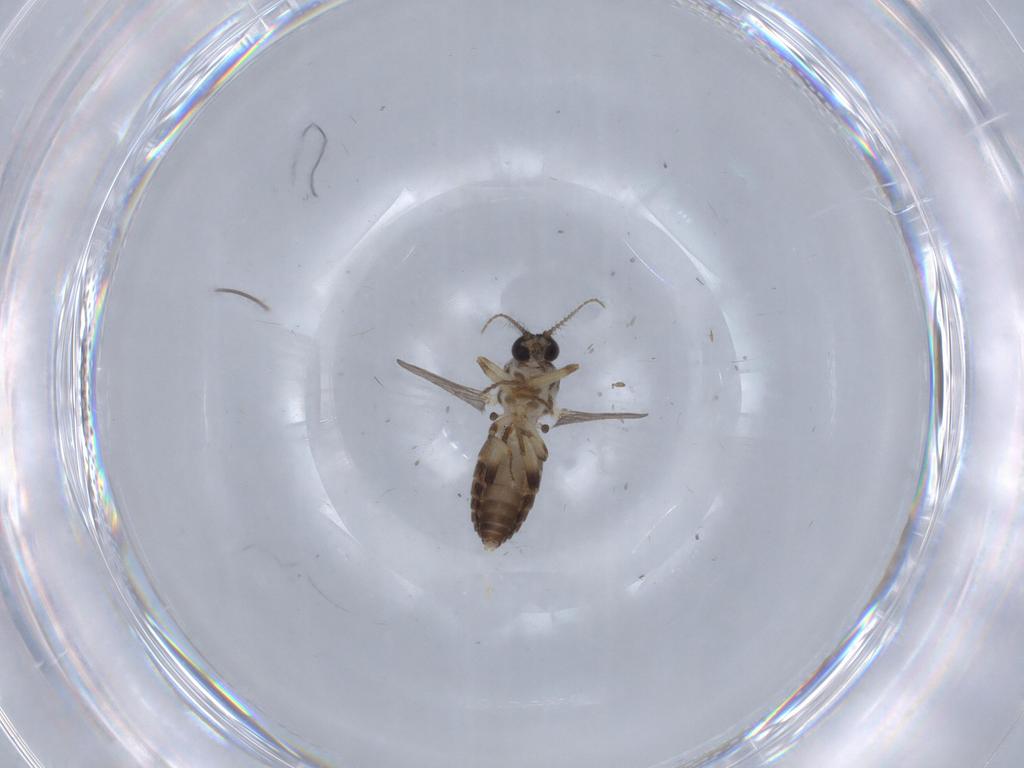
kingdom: Animalia
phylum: Arthropoda
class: Insecta
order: Diptera
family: Ceratopogonidae
